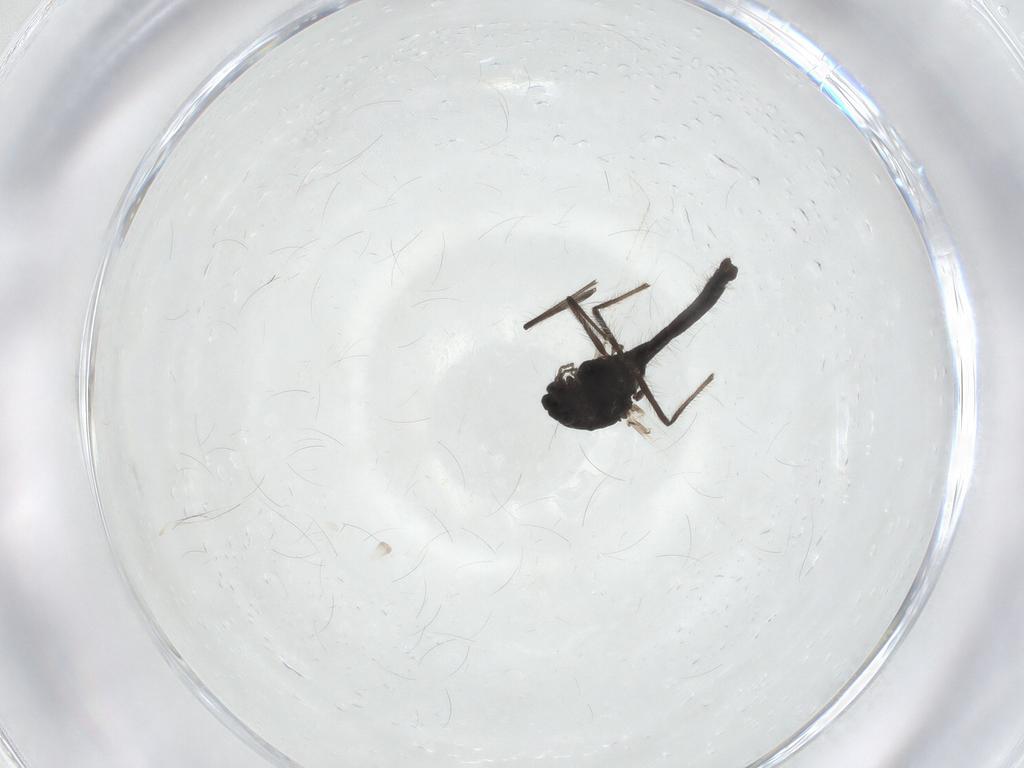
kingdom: Animalia
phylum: Arthropoda
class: Insecta
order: Diptera
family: Chironomidae
